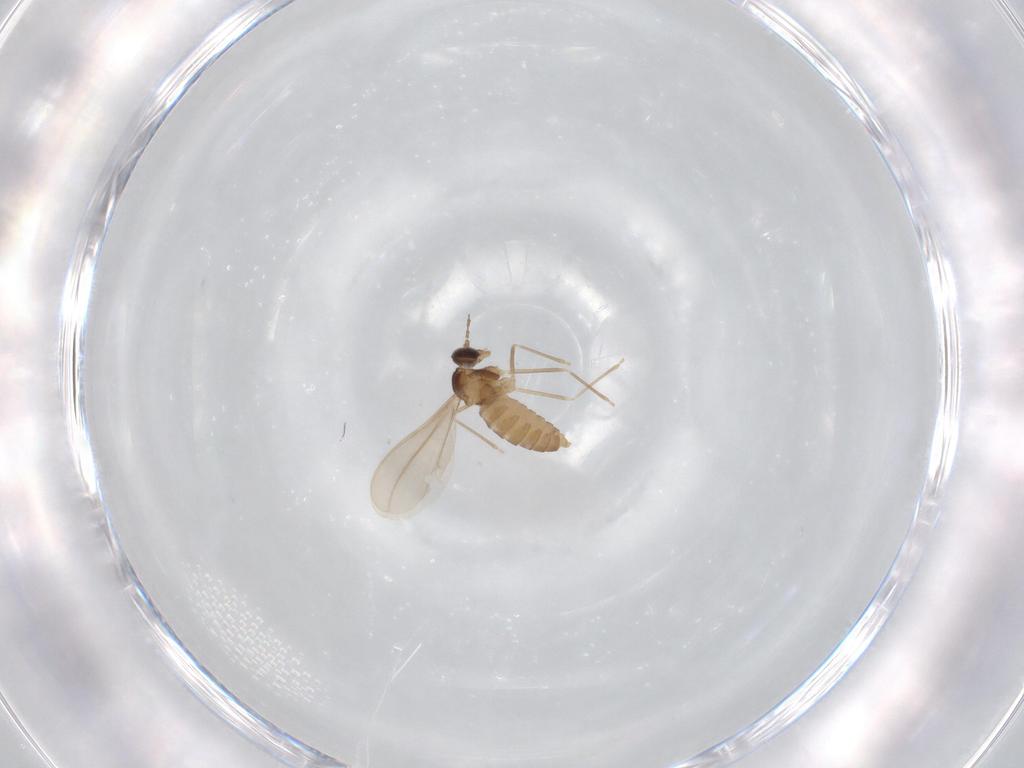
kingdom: Animalia
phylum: Arthropoda
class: Insecta
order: Diptera
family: Cecidomyiidae
